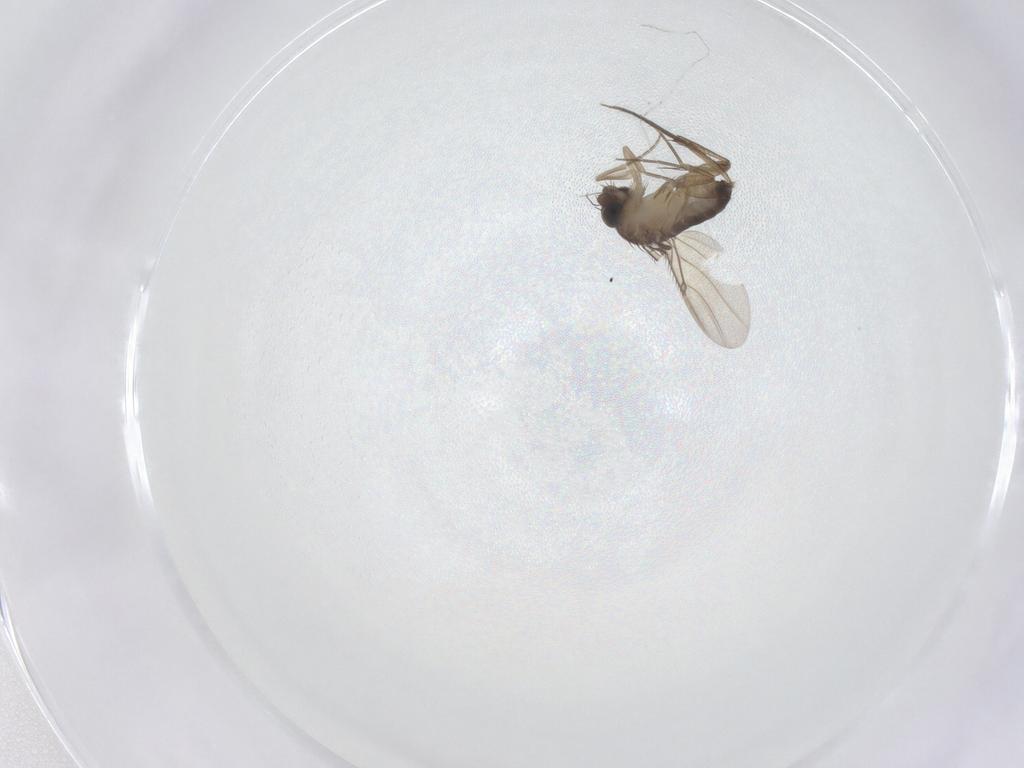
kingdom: Animalia
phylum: Arthropoda
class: Insecta
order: Diptera
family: Phoridae
